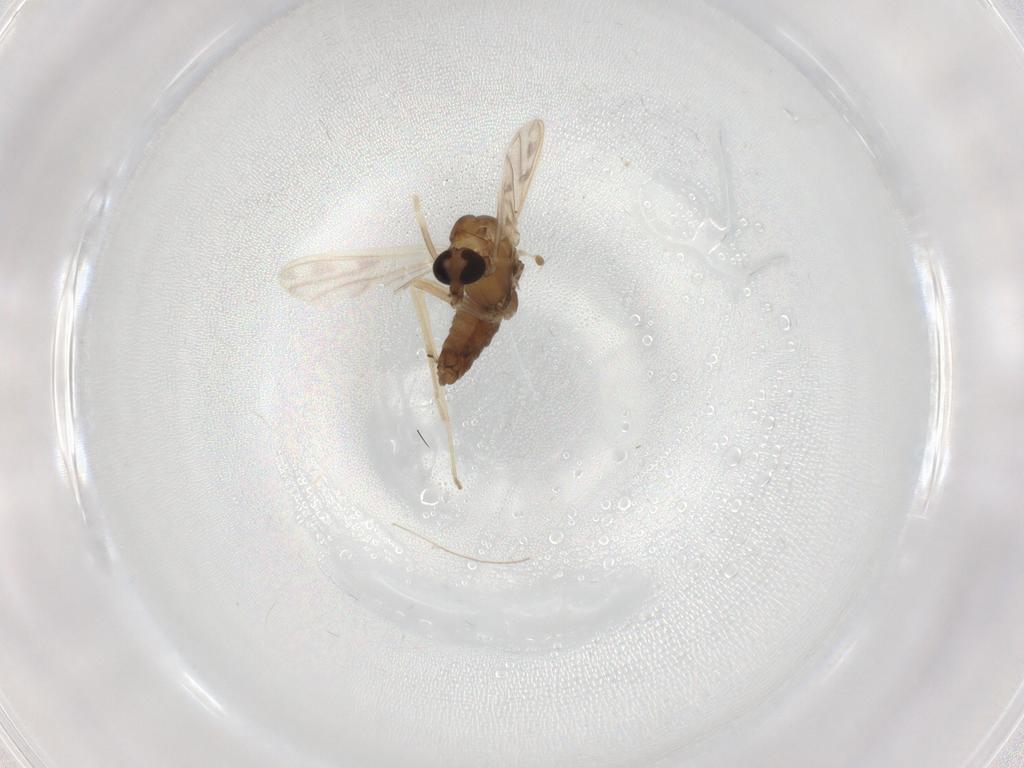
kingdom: Animalia
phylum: Arthropoda
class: Insecta
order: Diptera
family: Chironomidae
